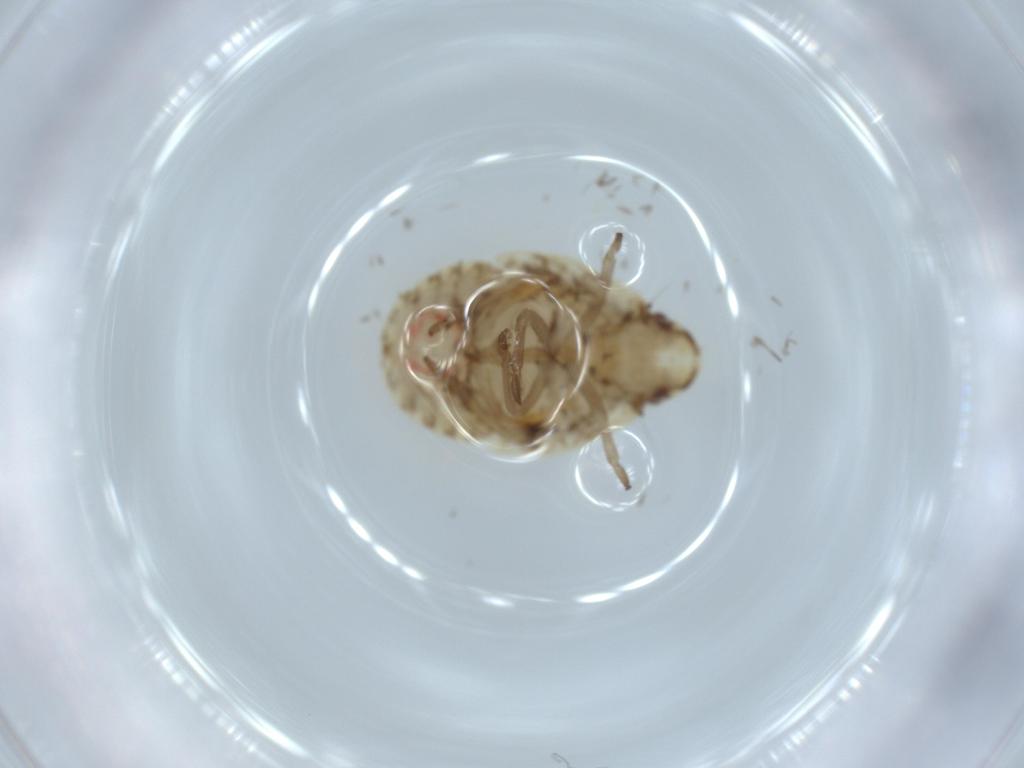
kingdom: Animalia
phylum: Arthropoda
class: Insecta
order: Hemiptera
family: Flatidae
